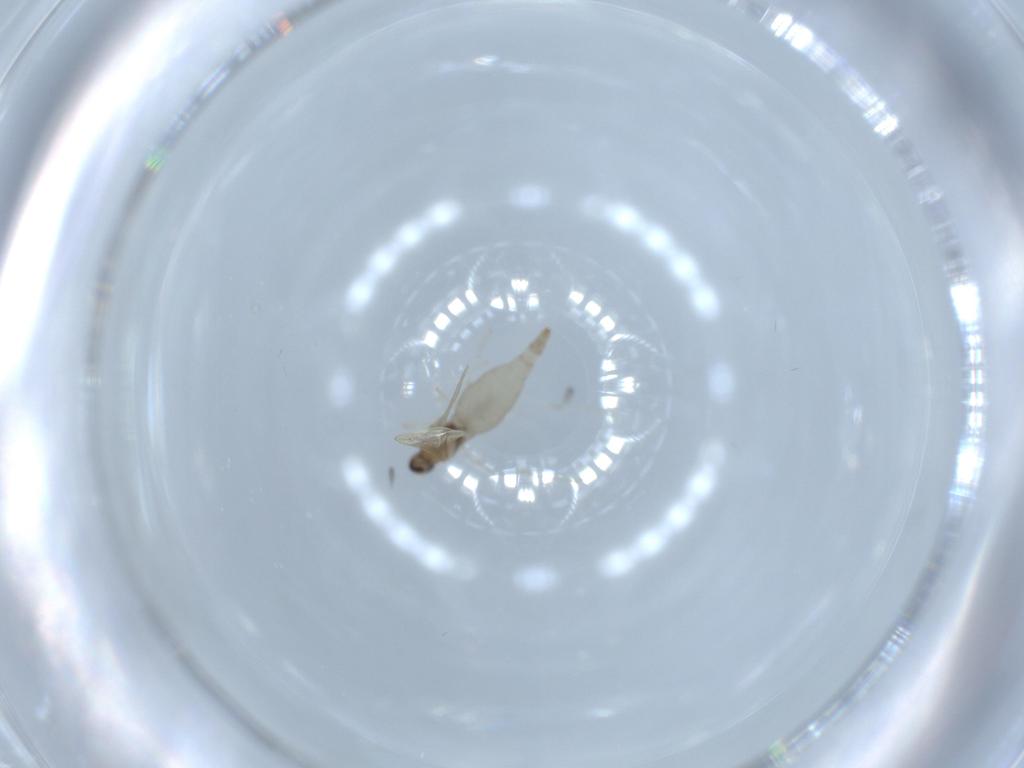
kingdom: Animalia
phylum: Arthropoda
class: Insecta
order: Diptera
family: Cecidomyiidae
